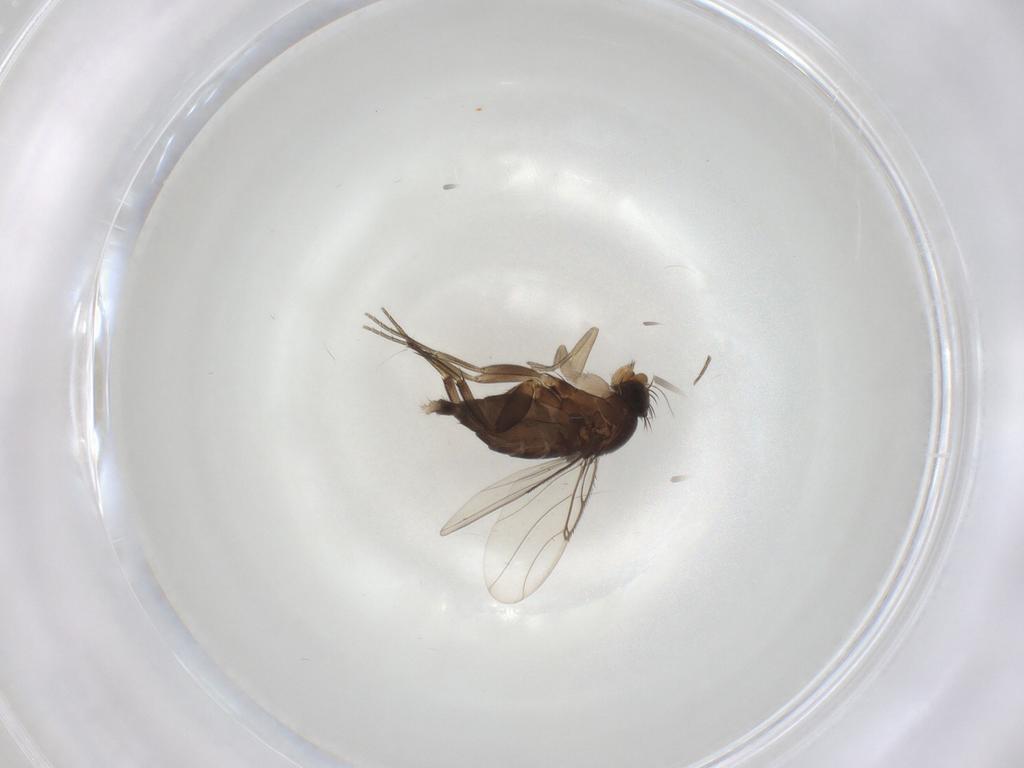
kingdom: Animalia
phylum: Arthropoda
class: Insecta
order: Diptera
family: Phoridae
